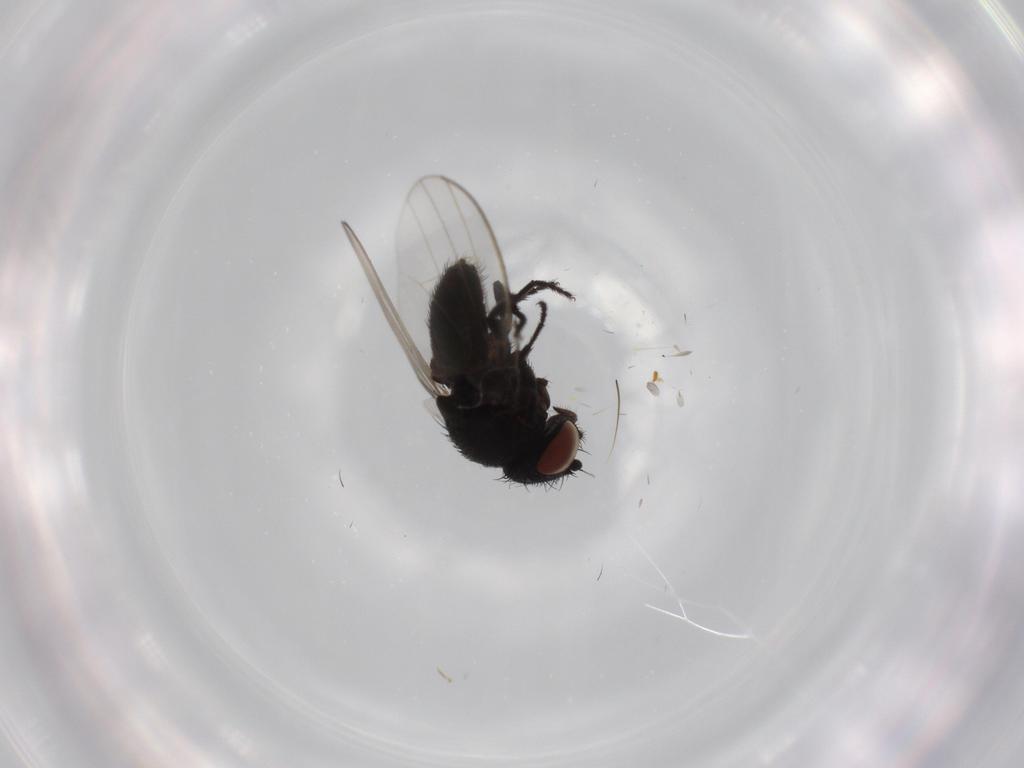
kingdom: Animalia
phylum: Arthropoda
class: Insecta
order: Diptera
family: Milichiidae
